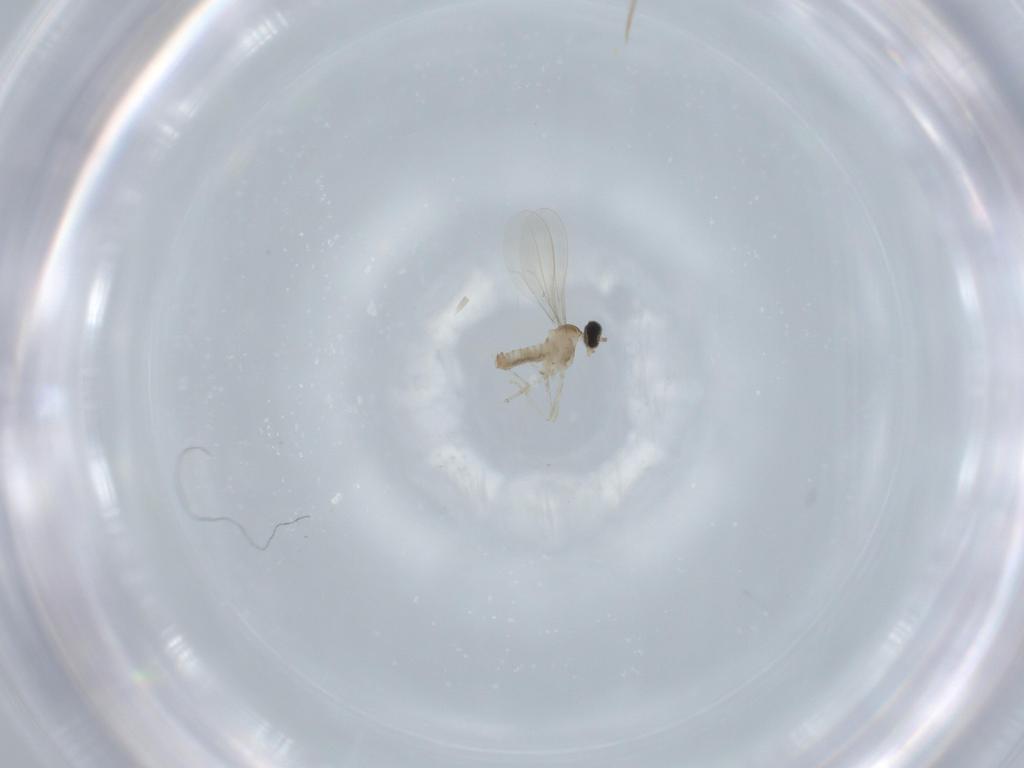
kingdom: Animalia
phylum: Arthropoda
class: Insecta
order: Diptera
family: Cecidomyiidae
